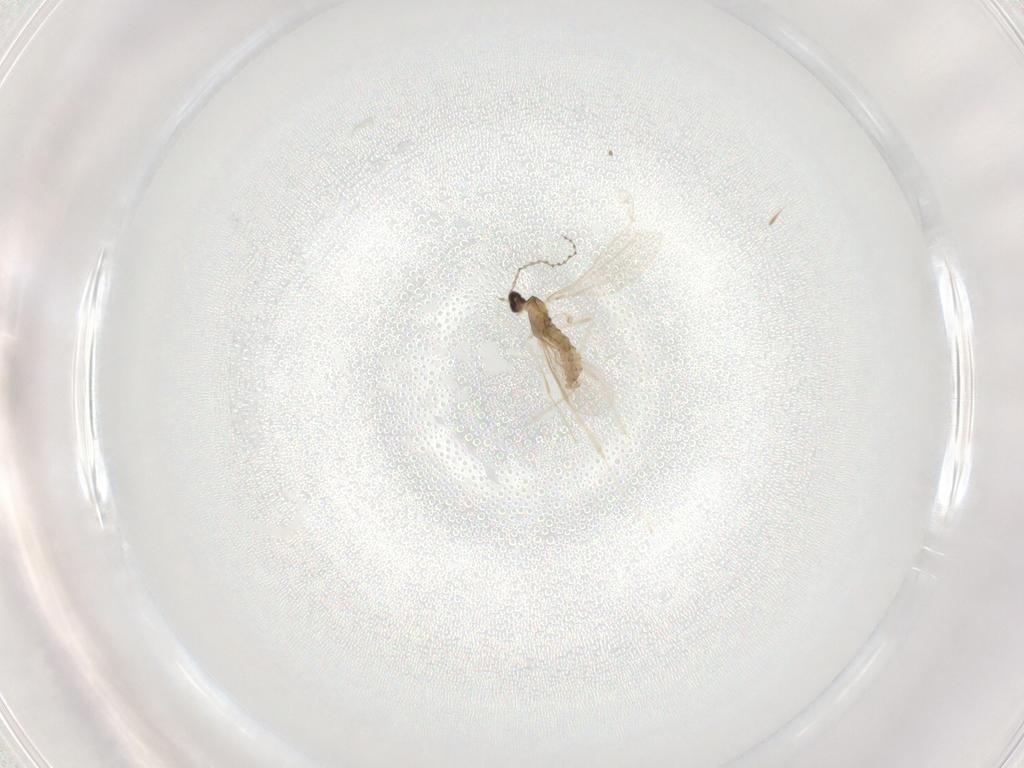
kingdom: Animalia
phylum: Arthropoda
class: Insecta
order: Diptera
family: Cecidomyiidae
